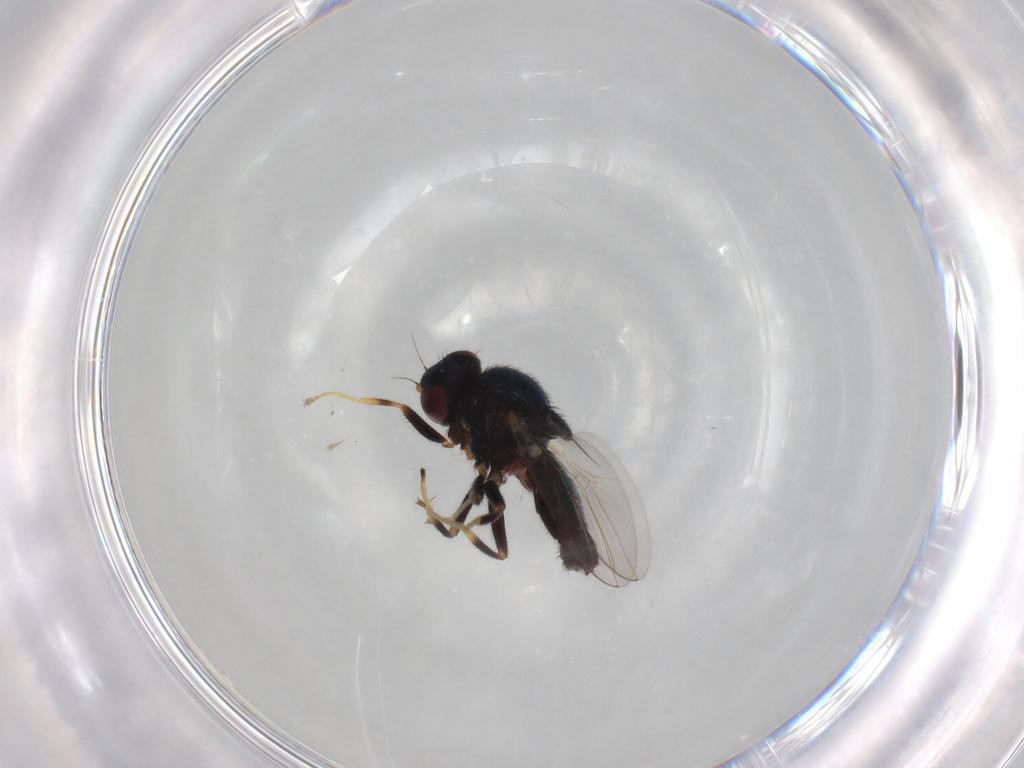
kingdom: Animalia
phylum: Arthropoda
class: Insecta
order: Diptera
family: Chloropidae
